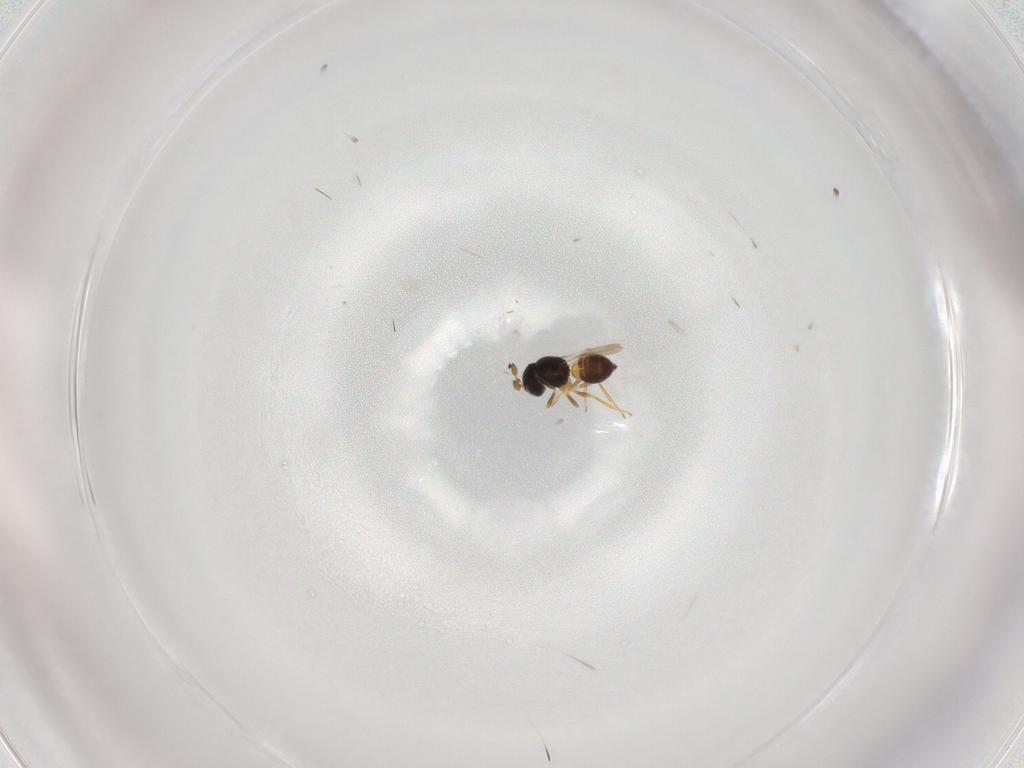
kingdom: Animalia
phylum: Arthropoda
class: Insecta
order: Hymenoptera
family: Scelionidae
